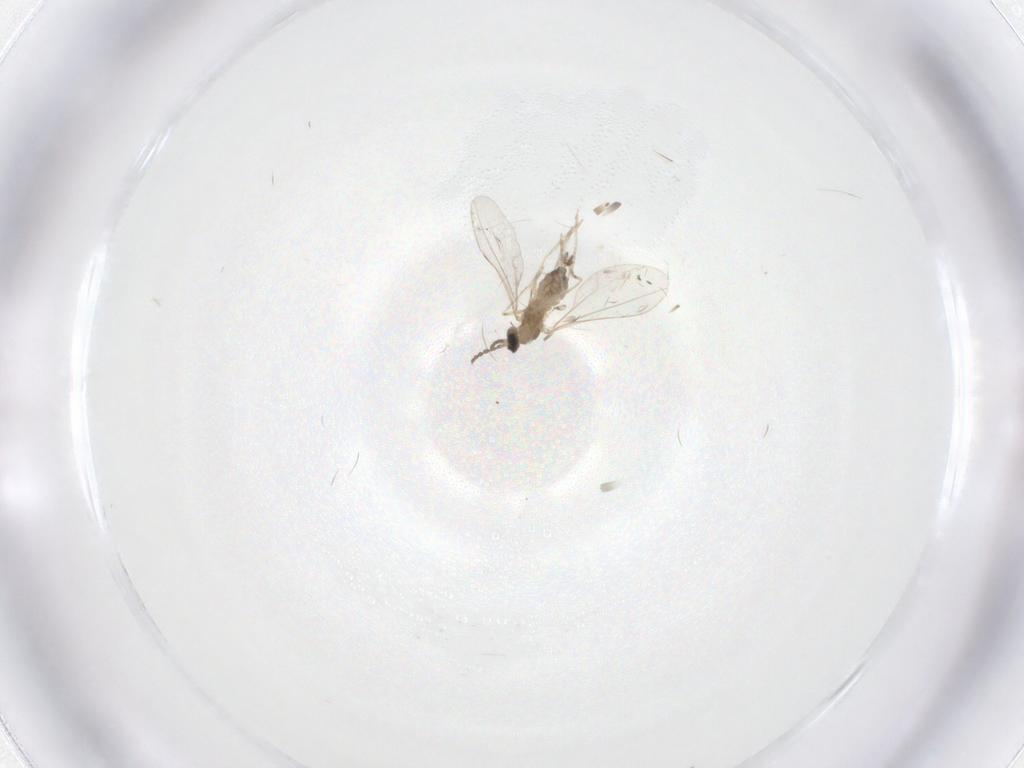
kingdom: Animalia
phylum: Arthropoda
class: Insecta
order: Diptera
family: Cecidomyiidae
